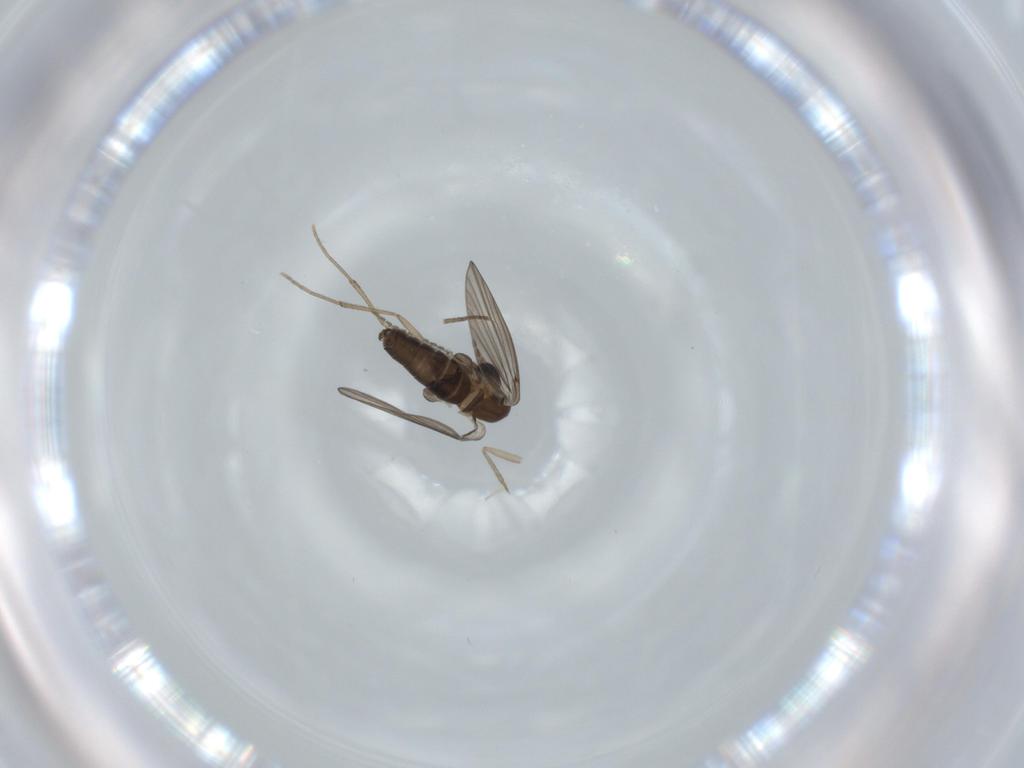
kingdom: Animalia
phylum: Arthropoda
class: Insecta
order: Diptera
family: Psychodidae
